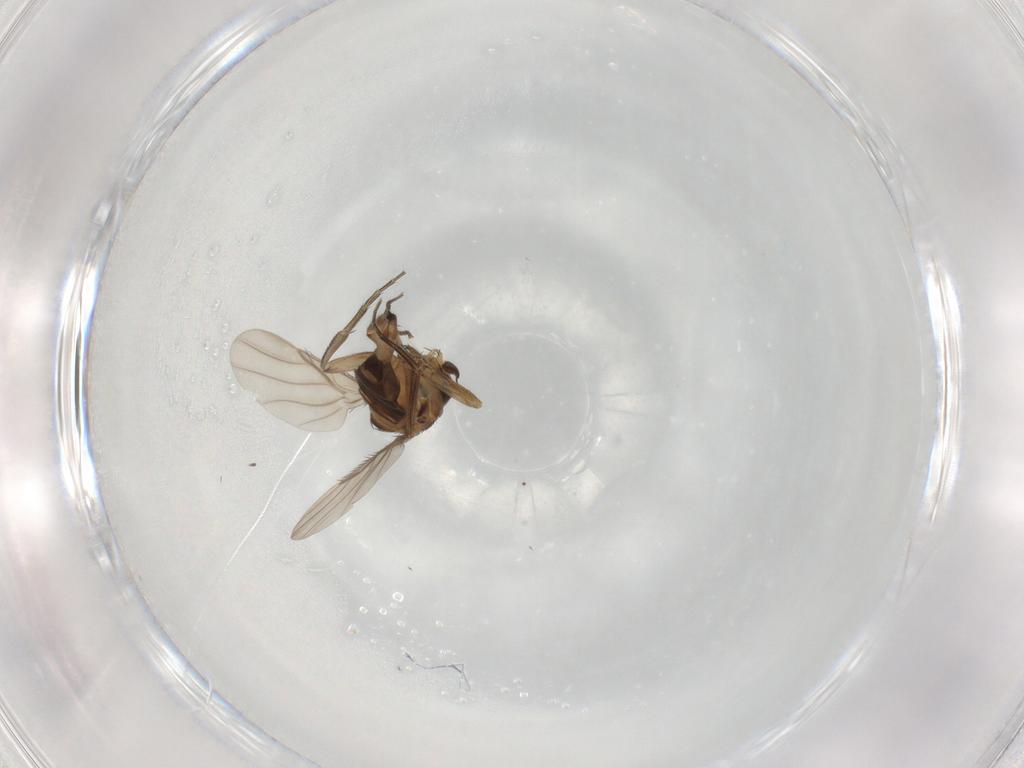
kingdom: Animalia
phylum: Arthropoda
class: Insecta
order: Diptera
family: Phoridae
